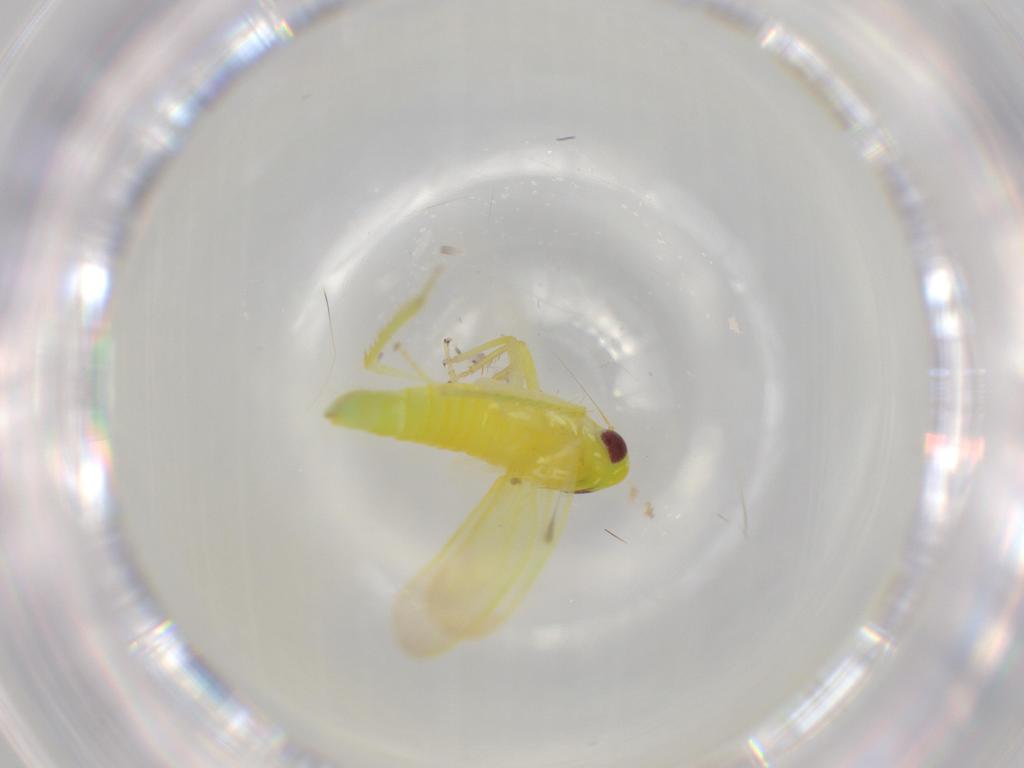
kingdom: Animalia
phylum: Arthropoda
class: Insecta
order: Hemiptera
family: Cicadellidae
